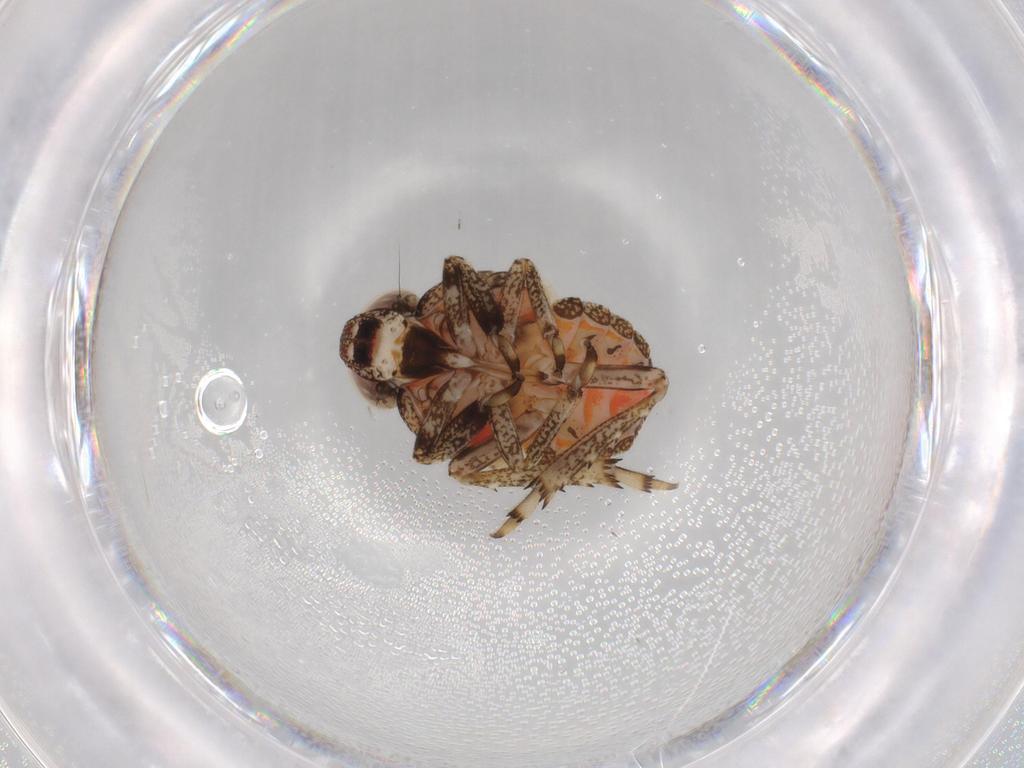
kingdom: Animalia
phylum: Arthropoda
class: Insecta
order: Hemiptera
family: Issidae
